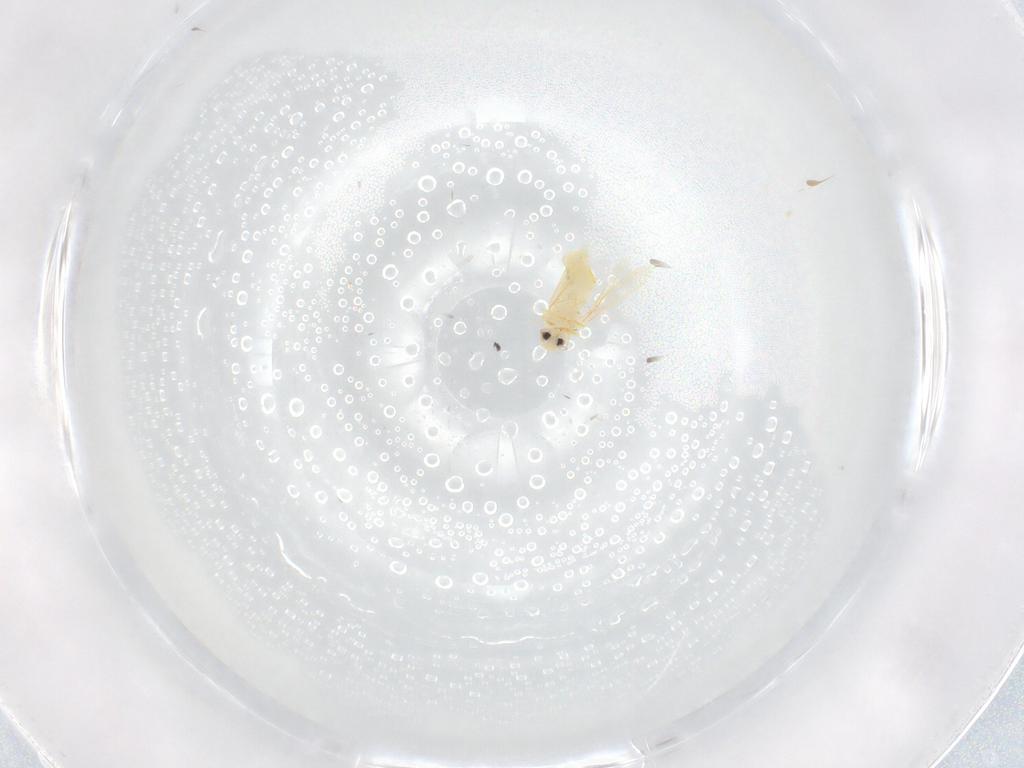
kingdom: Animalia
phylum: Arthropoda
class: Insecta
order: Hemiptera
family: Aleyrodidae
